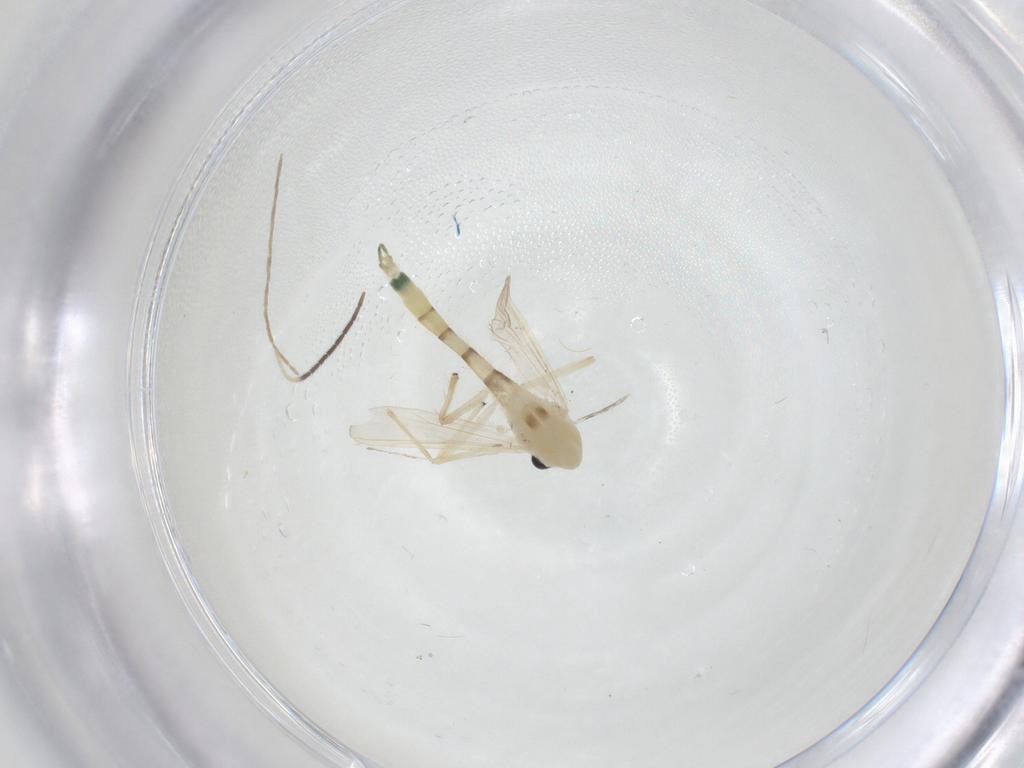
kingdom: Animalia
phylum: Arthropoda
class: Insecta
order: Diptera
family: Chironomidae
